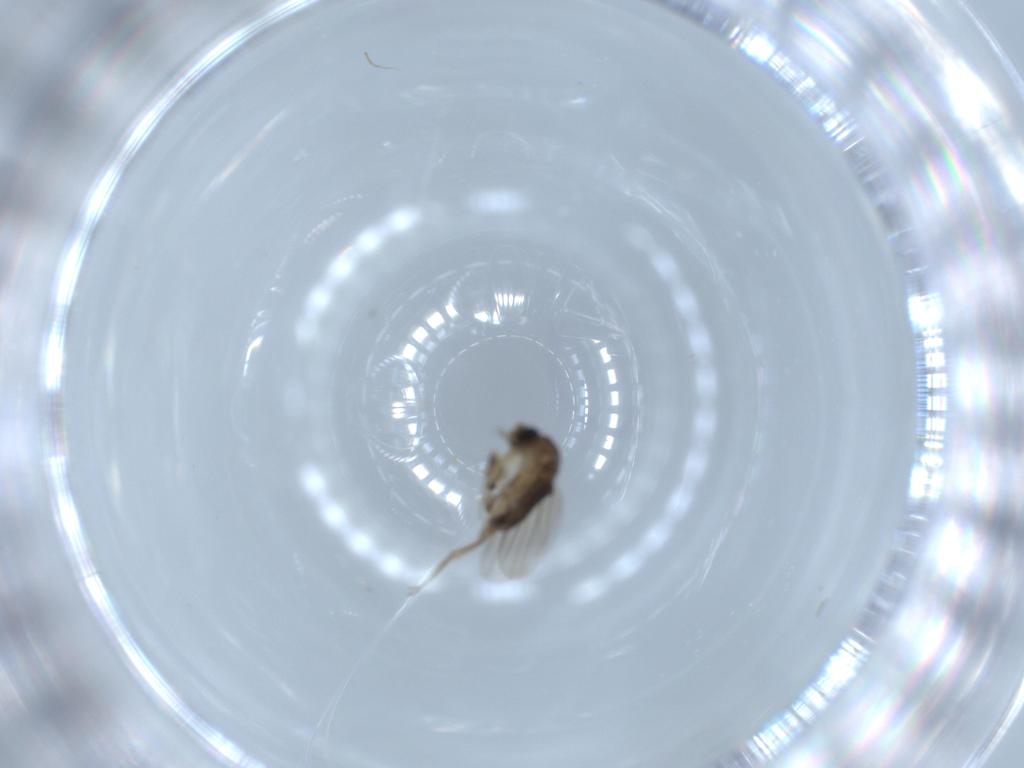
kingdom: Animalia
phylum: Arthropoda
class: Insecta
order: Diptera
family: Phoridae
